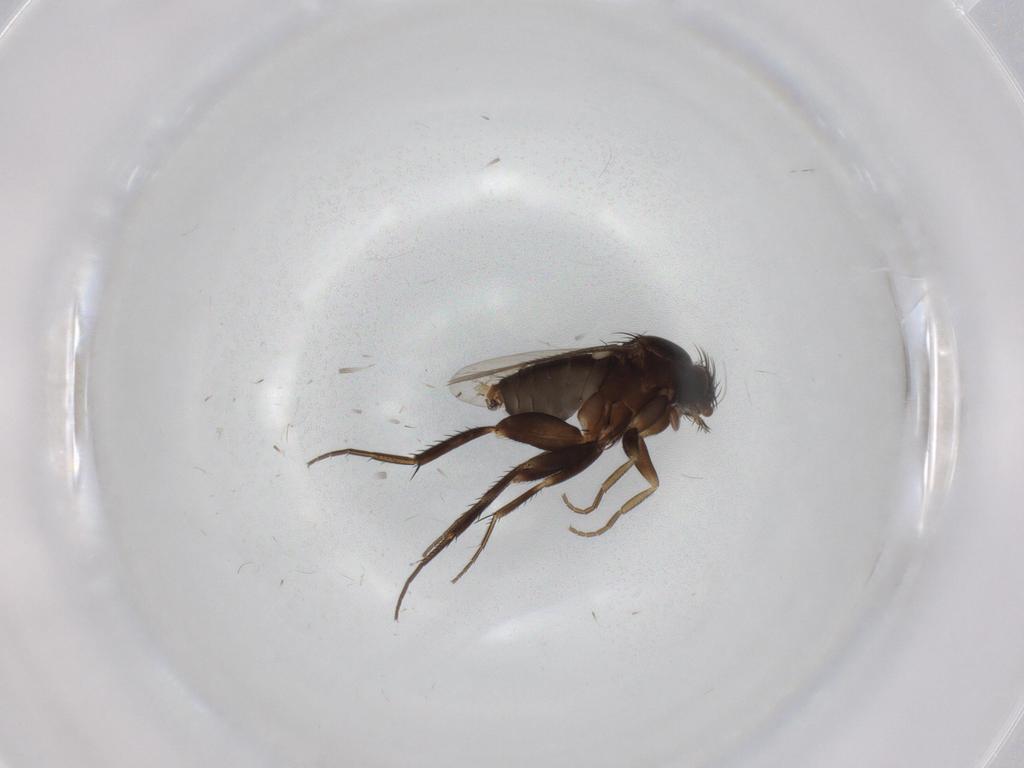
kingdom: Animalia
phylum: Arthropoda
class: Insecta
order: Diptera
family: Phoridae
